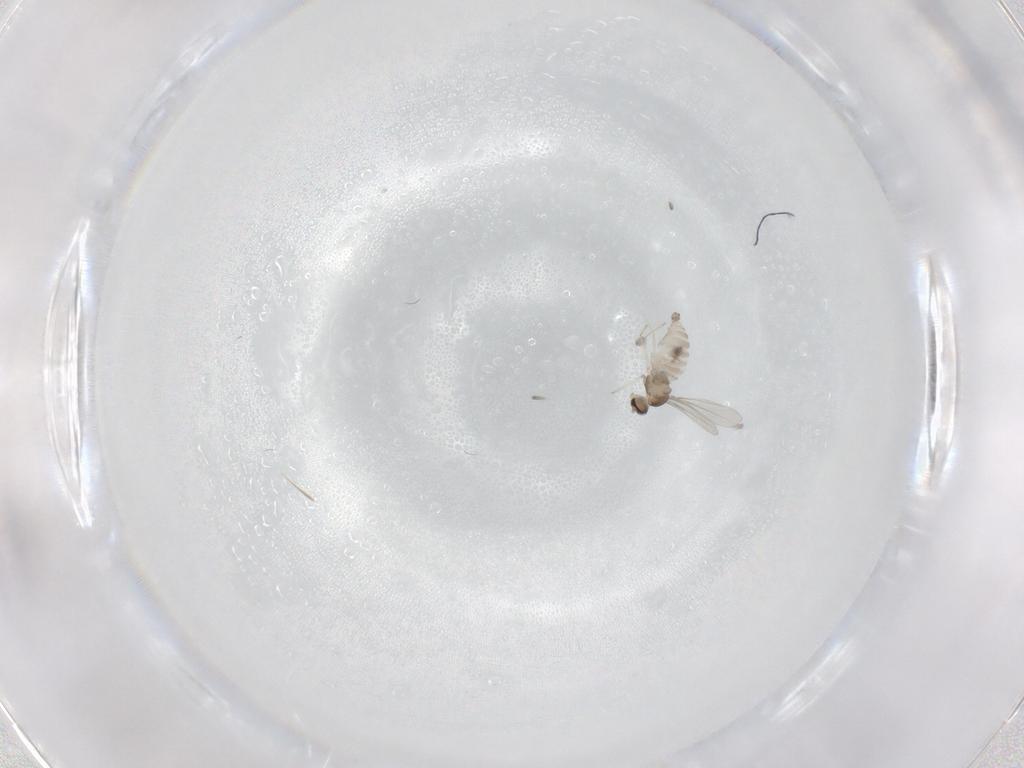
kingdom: Animalia
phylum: Arthropoda
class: Insecta
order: Diptera
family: Cecidomyiidae
